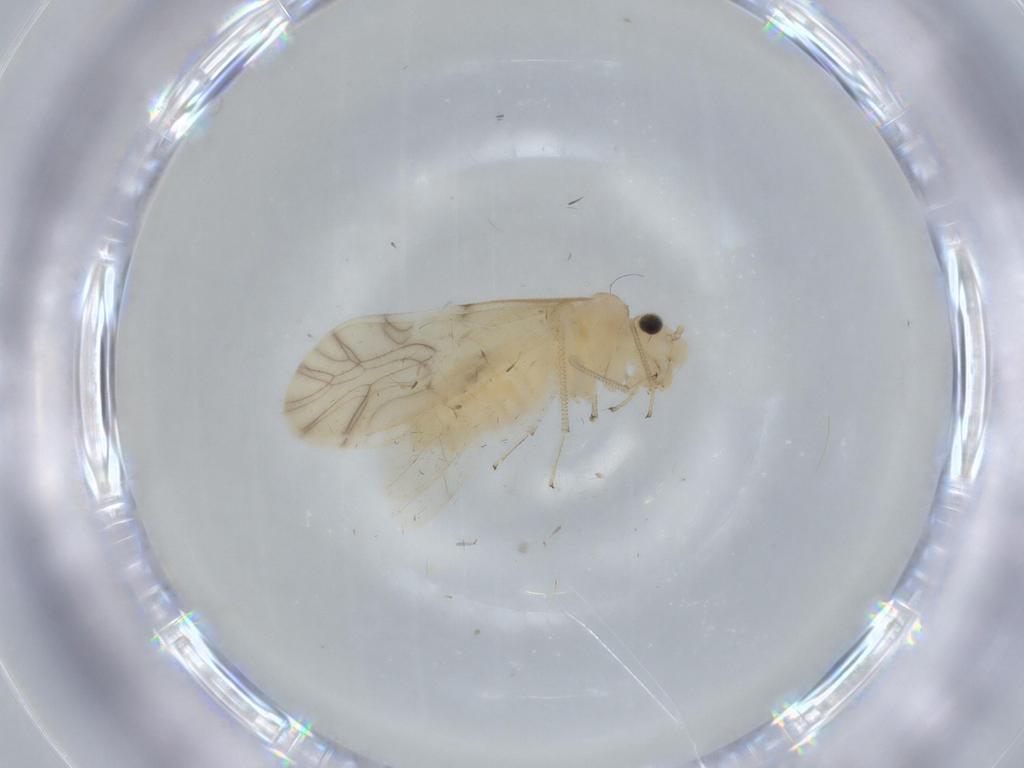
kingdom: Animalia
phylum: Arthropoda
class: Insecta
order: Psocodea
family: Caeciliusidae
